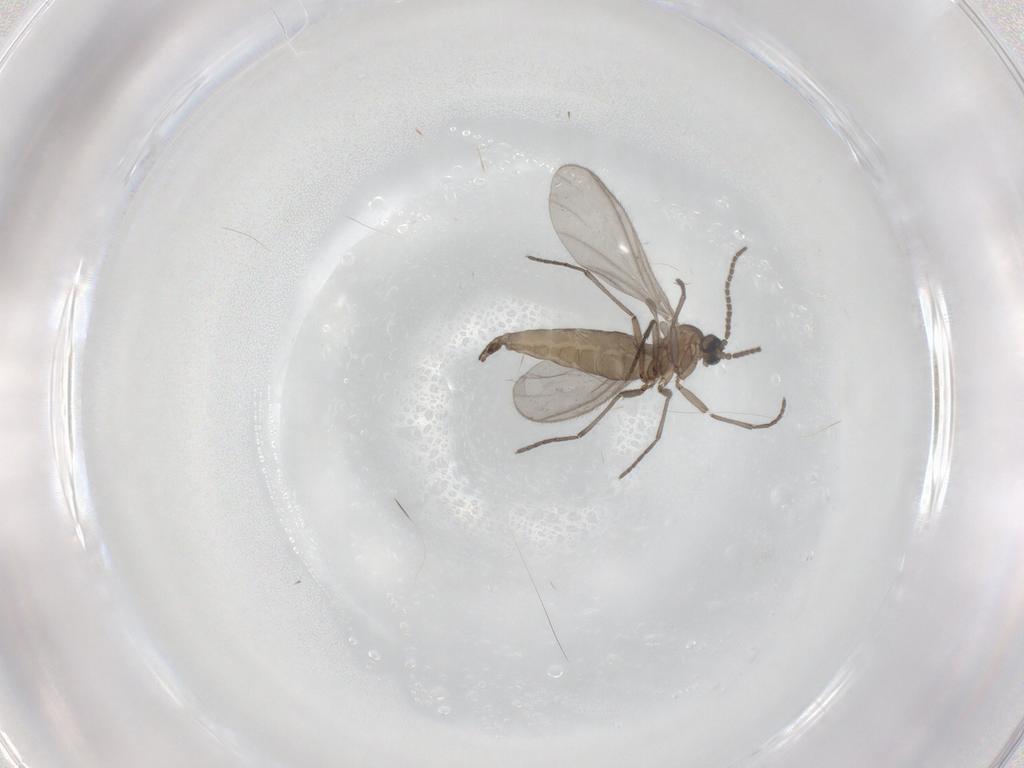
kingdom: Animalia
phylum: Arthropoda
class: Insecta
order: Diptera
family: Sciaridae
